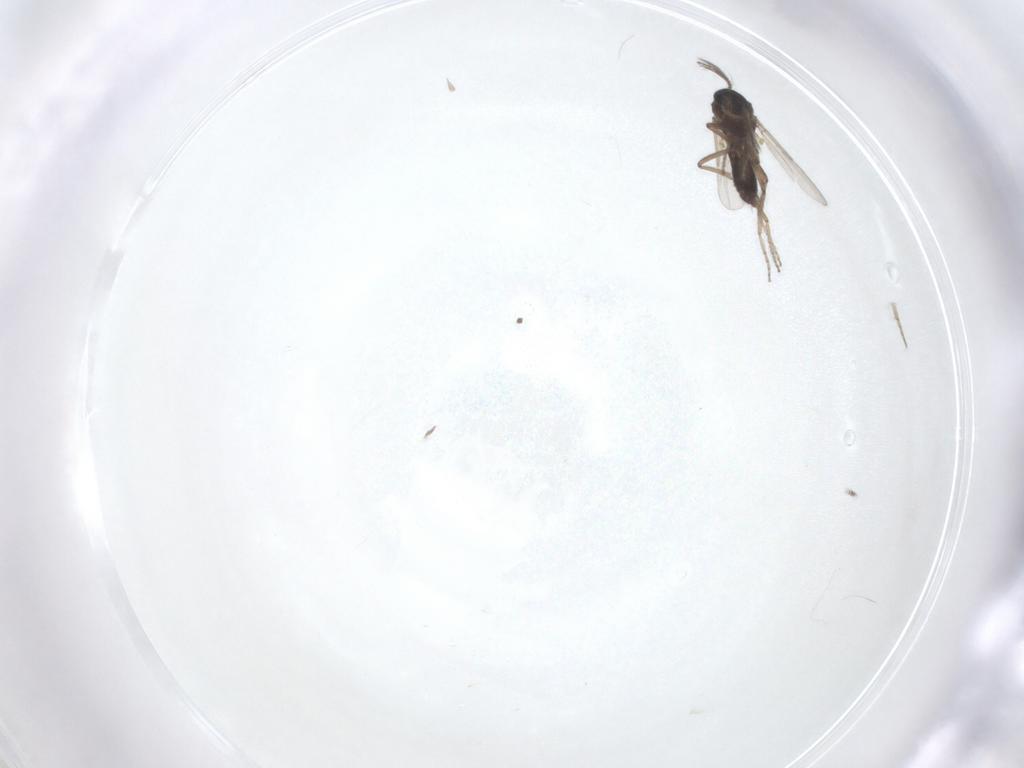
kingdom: Animalia
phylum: Arthropoda
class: Insecta
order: Diptera
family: Ceratopogonidae
